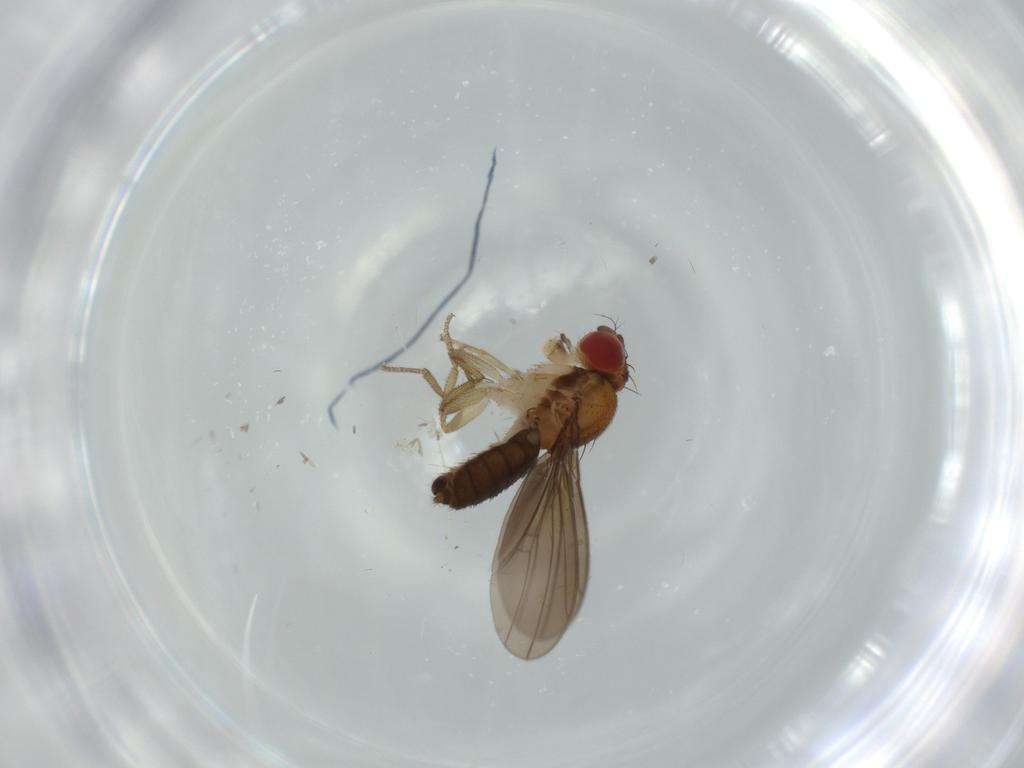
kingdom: Animalia
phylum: Arthropoda
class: Insecta
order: Diptera
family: Drosophilidae
